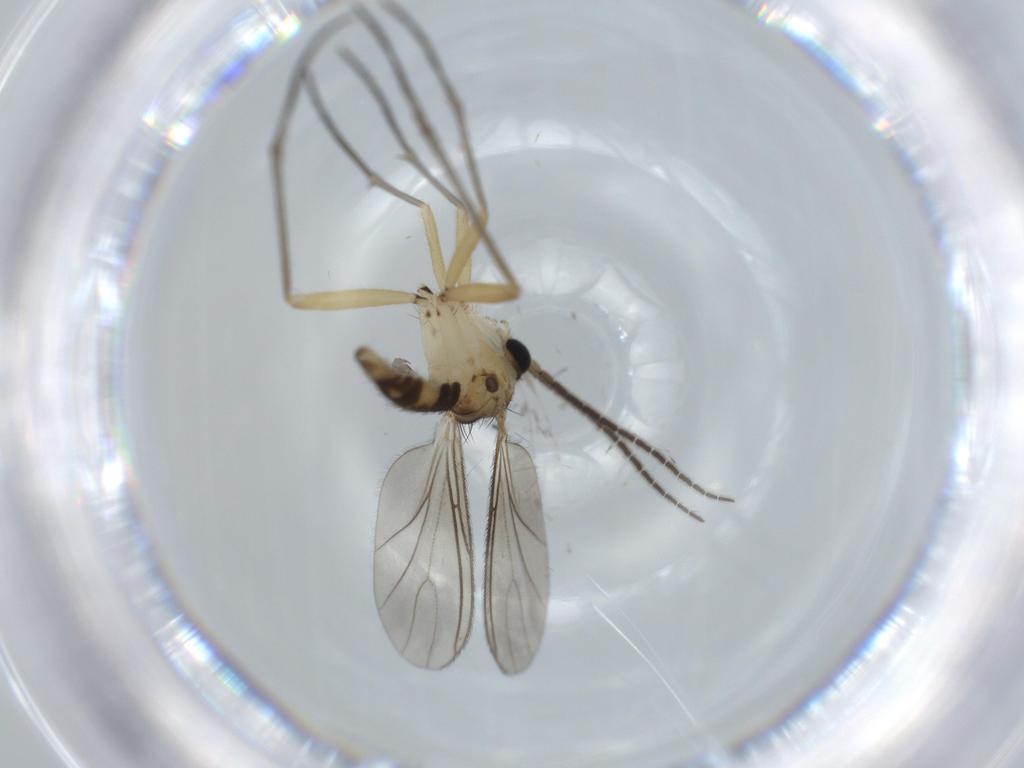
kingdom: Animalia
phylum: Arthropoda
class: Insecta
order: Diptera
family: Sciaridae
